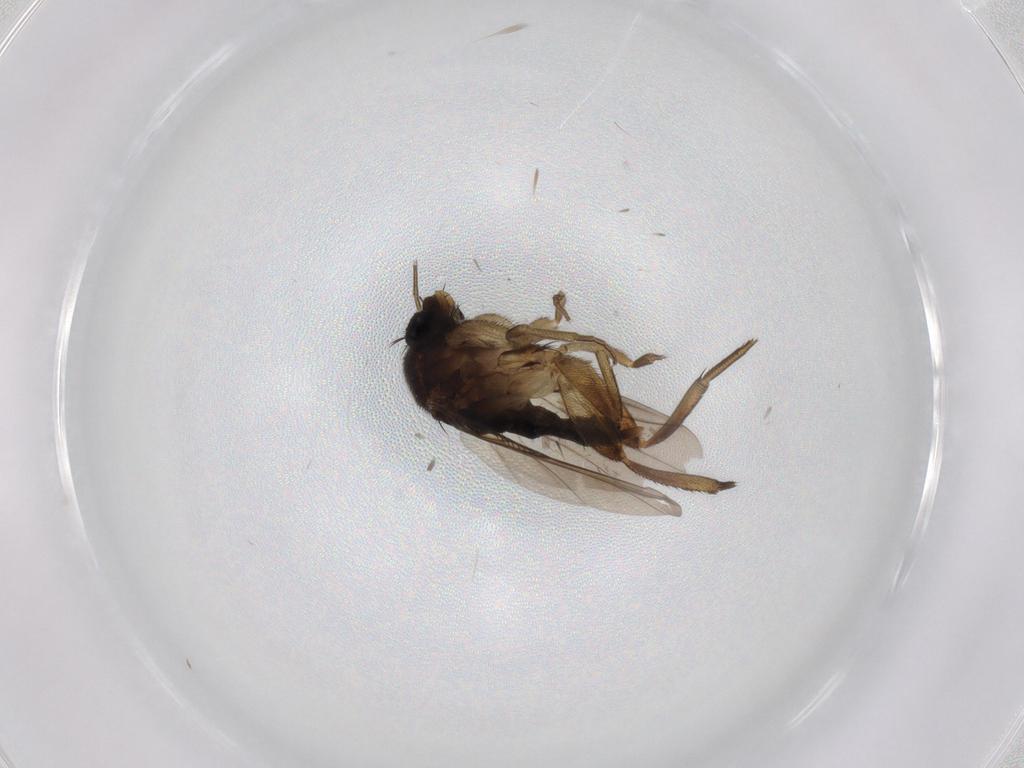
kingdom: Animalia
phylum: Arthropoda
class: Insecta
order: Diptera
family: Phoridae
